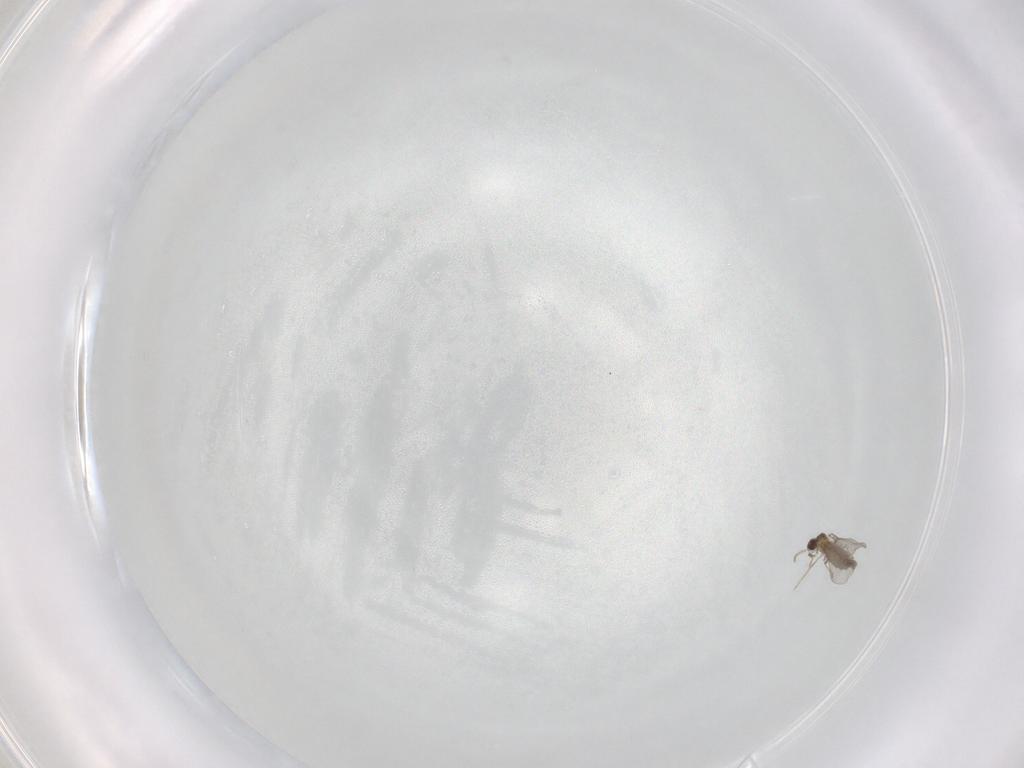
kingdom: Animalia
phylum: Arthropoda
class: Insecta
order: Diptera
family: Cecidomyiidae
